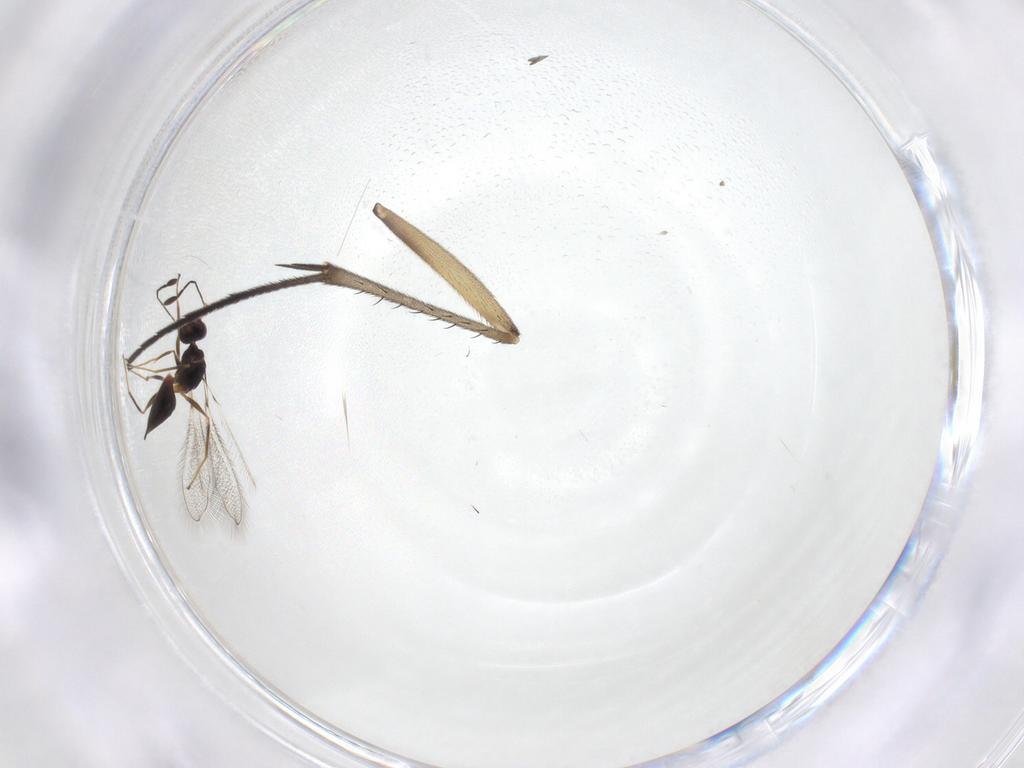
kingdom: Animalia
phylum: Arthropoda
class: Insecta
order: Hymenoptera
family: Mymaridae
